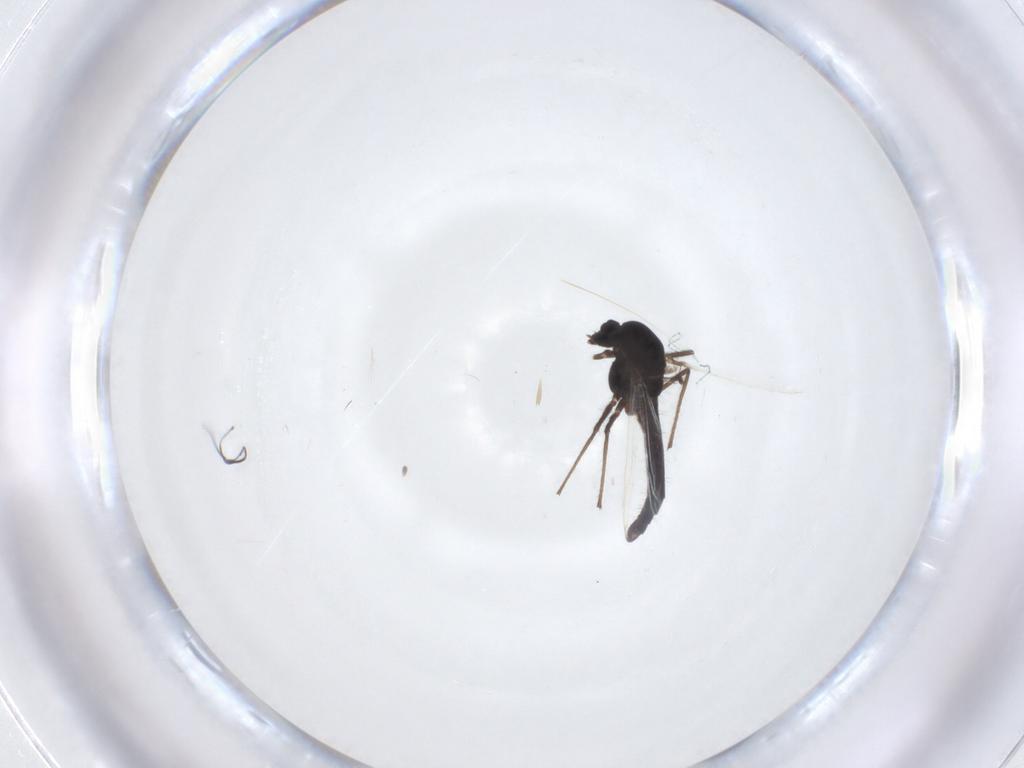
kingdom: Animalia
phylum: Arthropoda
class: Insecta
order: Diptera
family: Chironomidae
